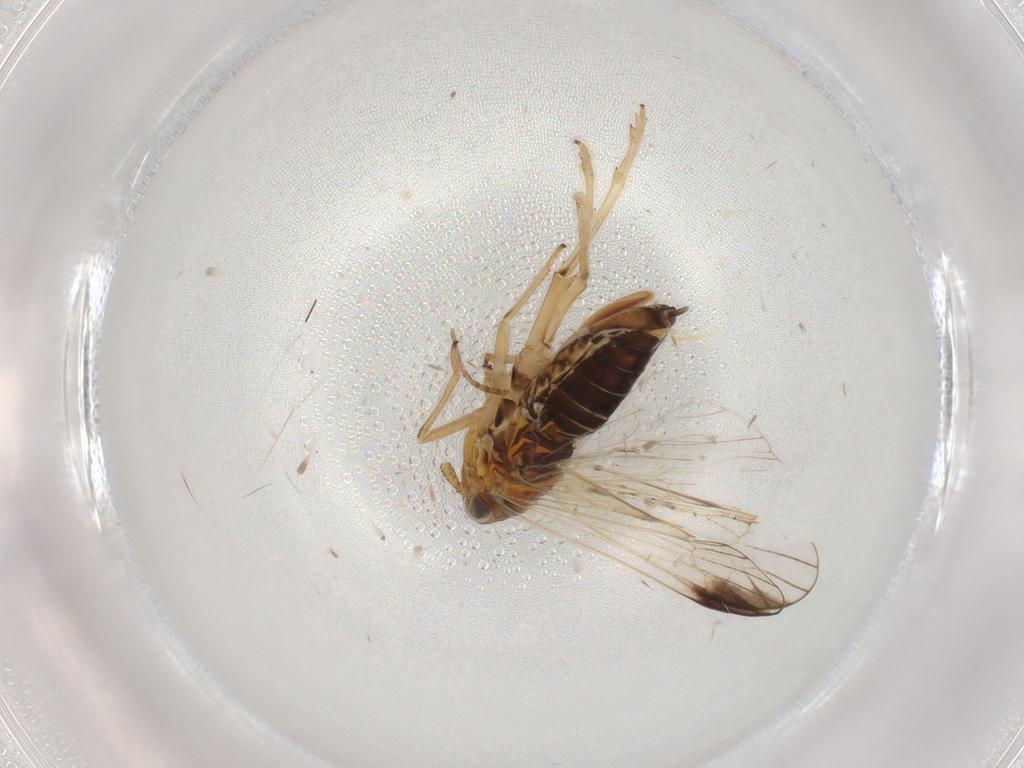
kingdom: Animalia
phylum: Arthropoda
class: Insecta
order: Hemiptera
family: Delphacidae
